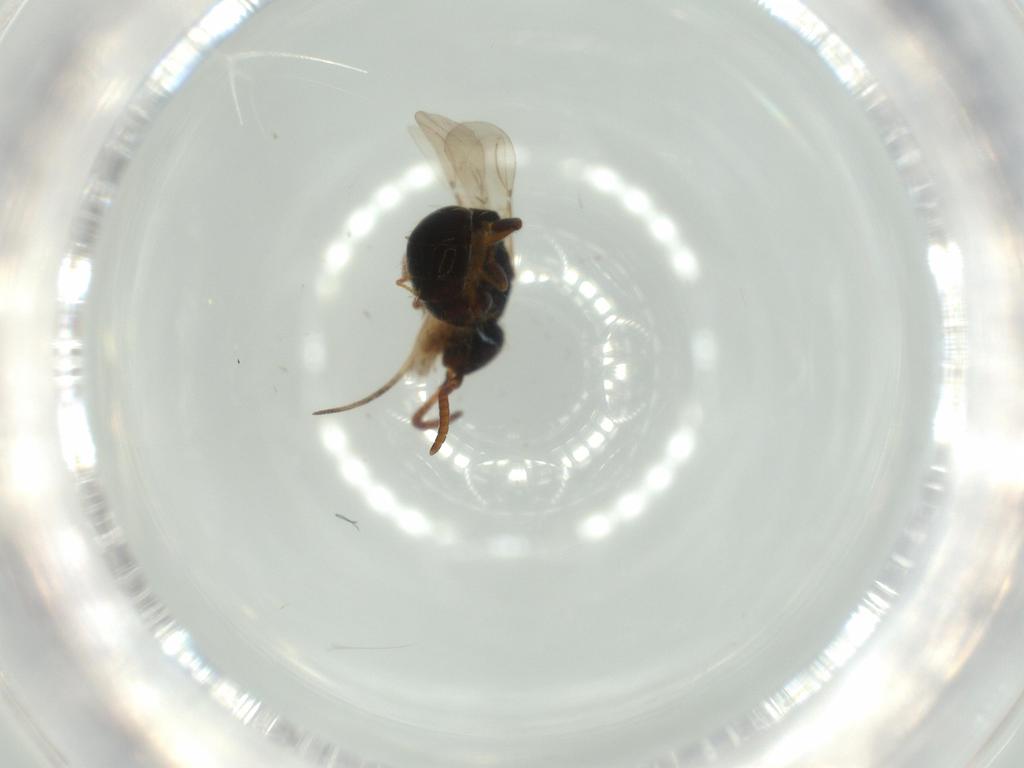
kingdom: Animalia
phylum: Arthropoda
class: Insecta
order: Hymenoptera
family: Bethylidae
